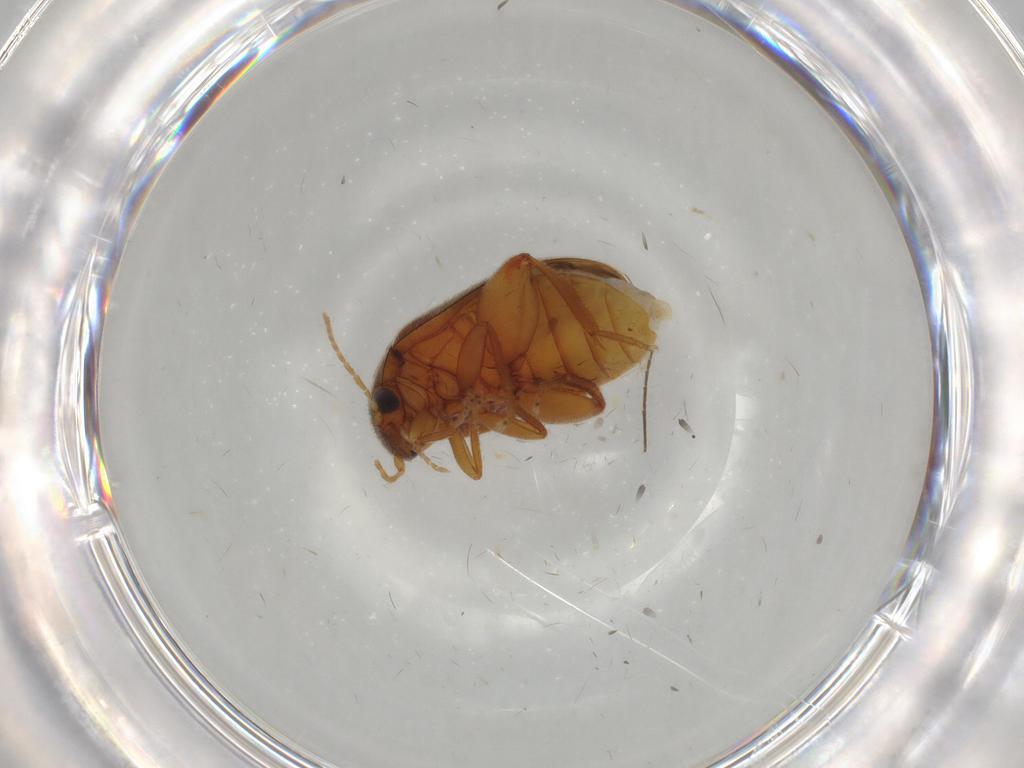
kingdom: Animalia
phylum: Arthropoda
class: Insecta
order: Coleoptera
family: Scirtidae
